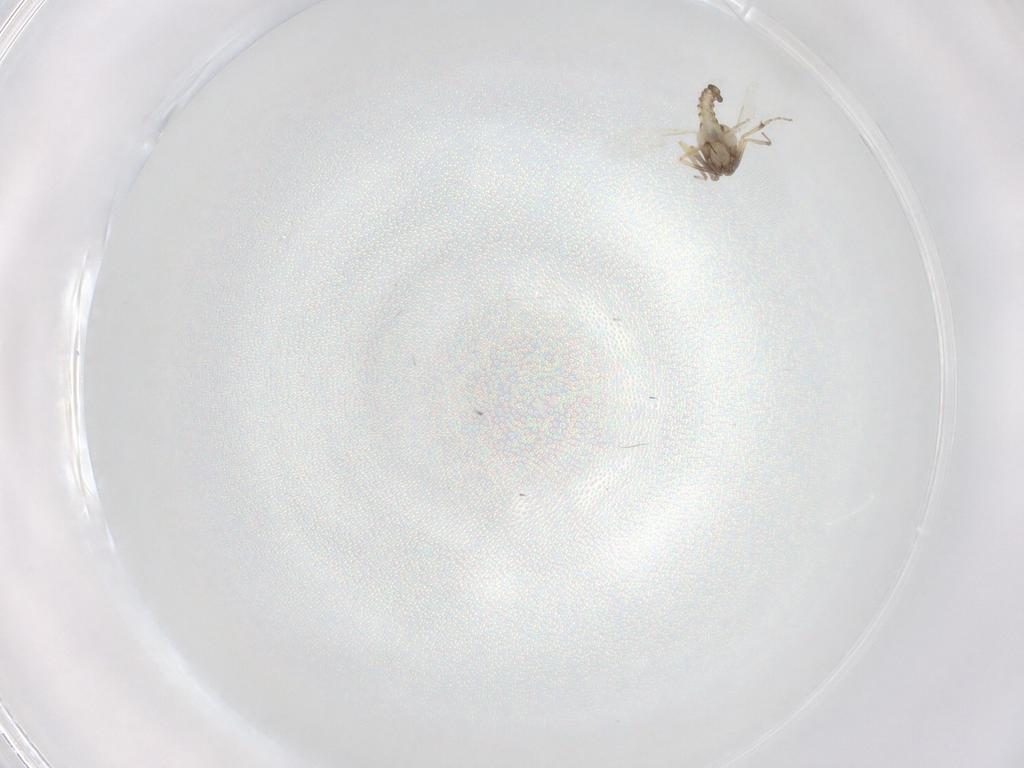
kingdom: Animalia
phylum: Arthropoda
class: Insecta
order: Diptera
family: Ceratopogonidae
